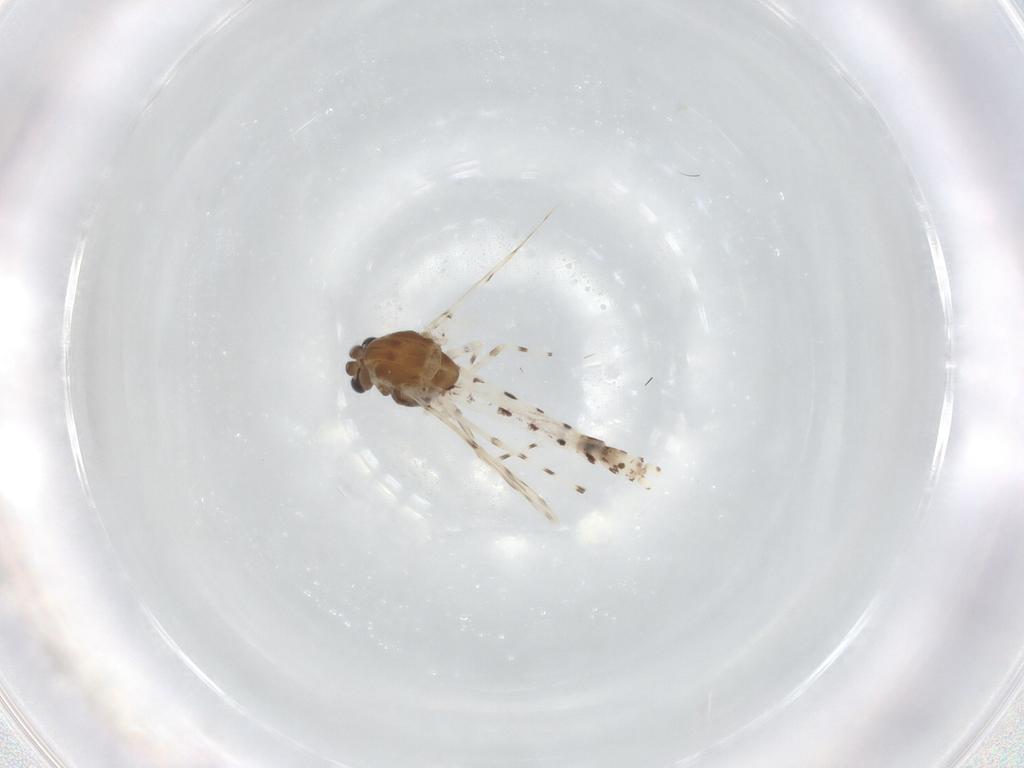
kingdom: Animalia
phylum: Arthropoda
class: Insecta
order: Diptera
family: Chironomidae
